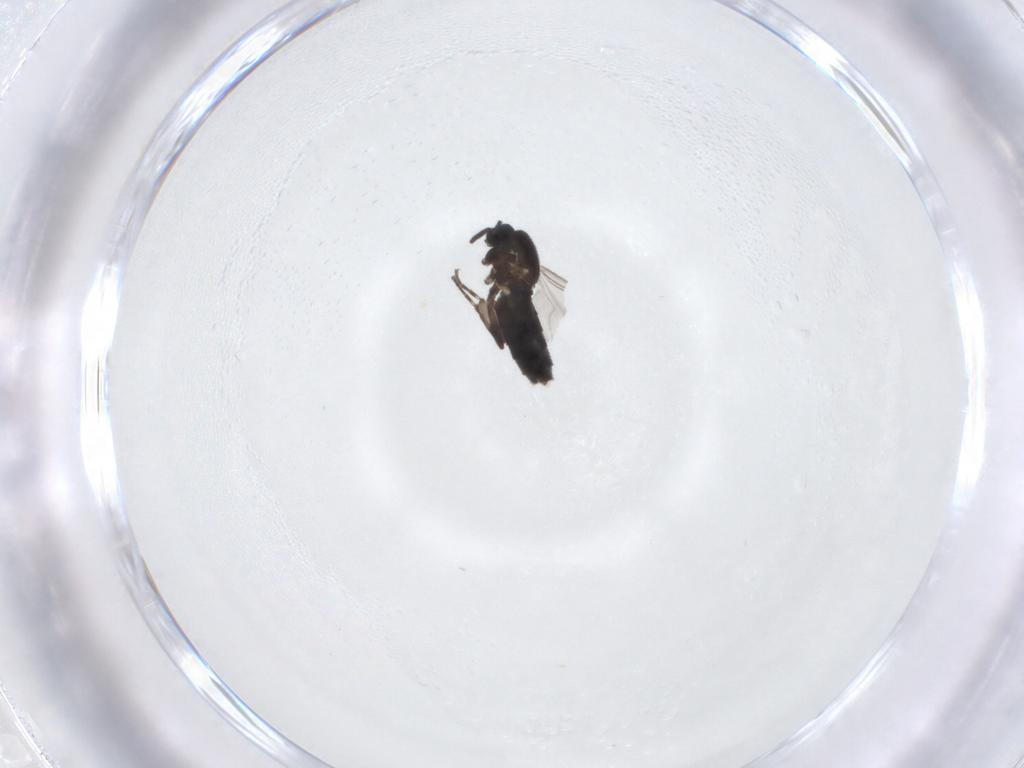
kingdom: Animalia
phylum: Arthropoda
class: Insecta
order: Diptera
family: Scatopsidae
